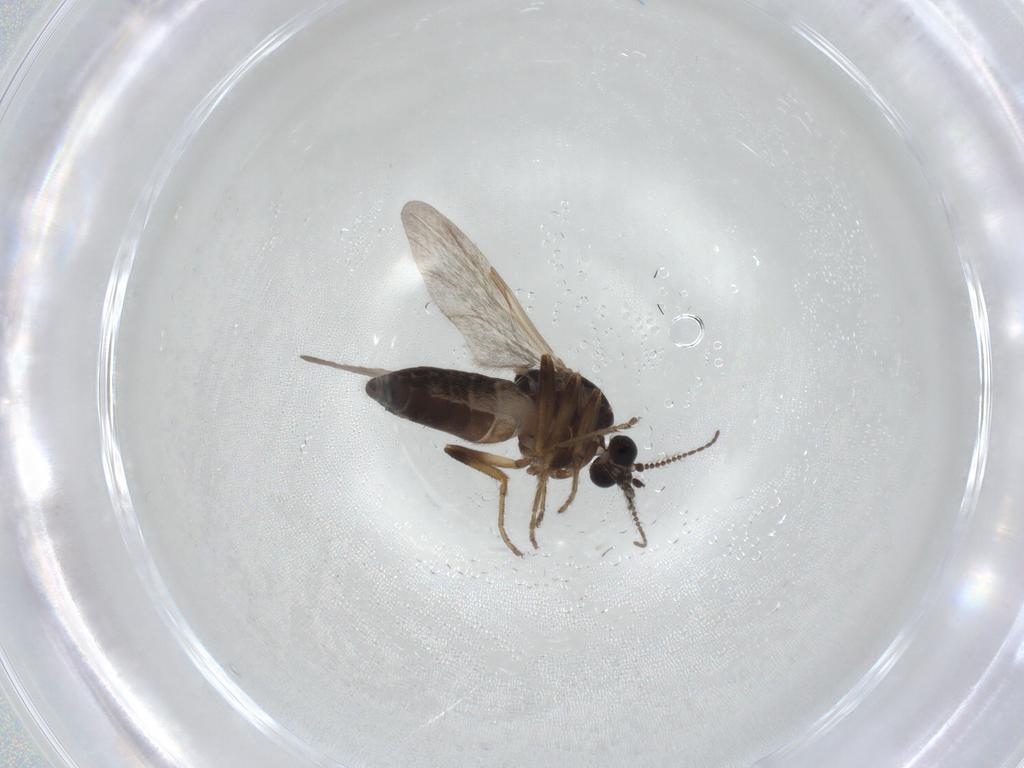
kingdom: Animalia
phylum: Arthropoda
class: Insecta
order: Diptera
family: Ceratopogonidae
